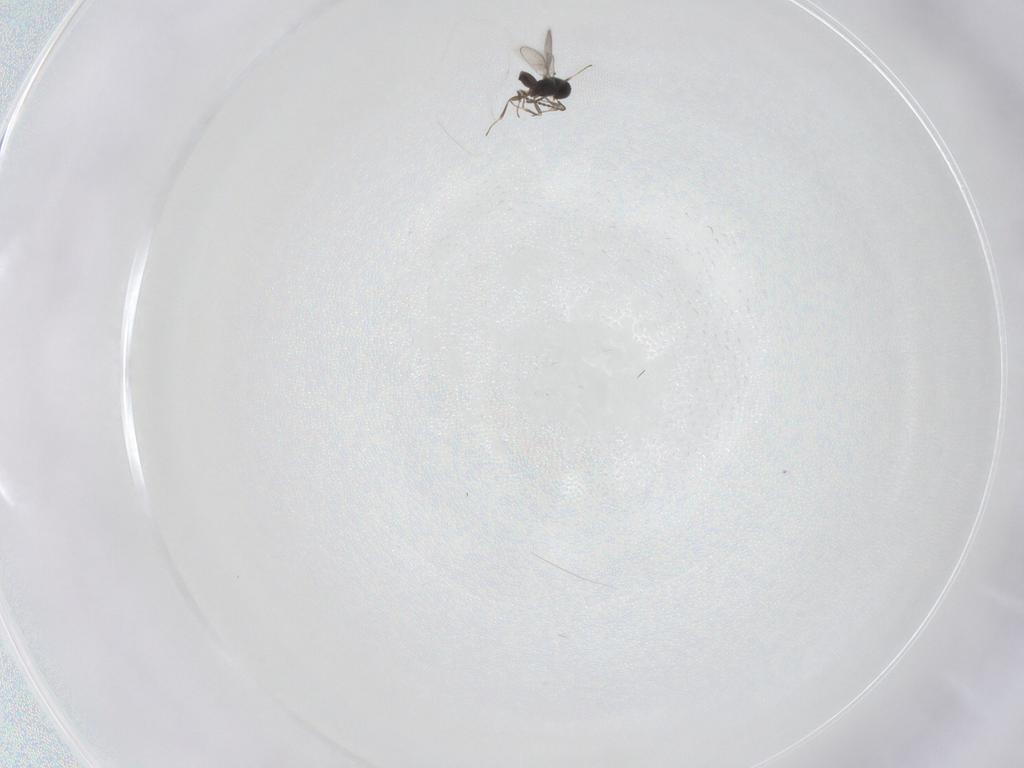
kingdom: Animalia
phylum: Arthropoda
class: Insecta
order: Hymenoptera
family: Scelionidae
